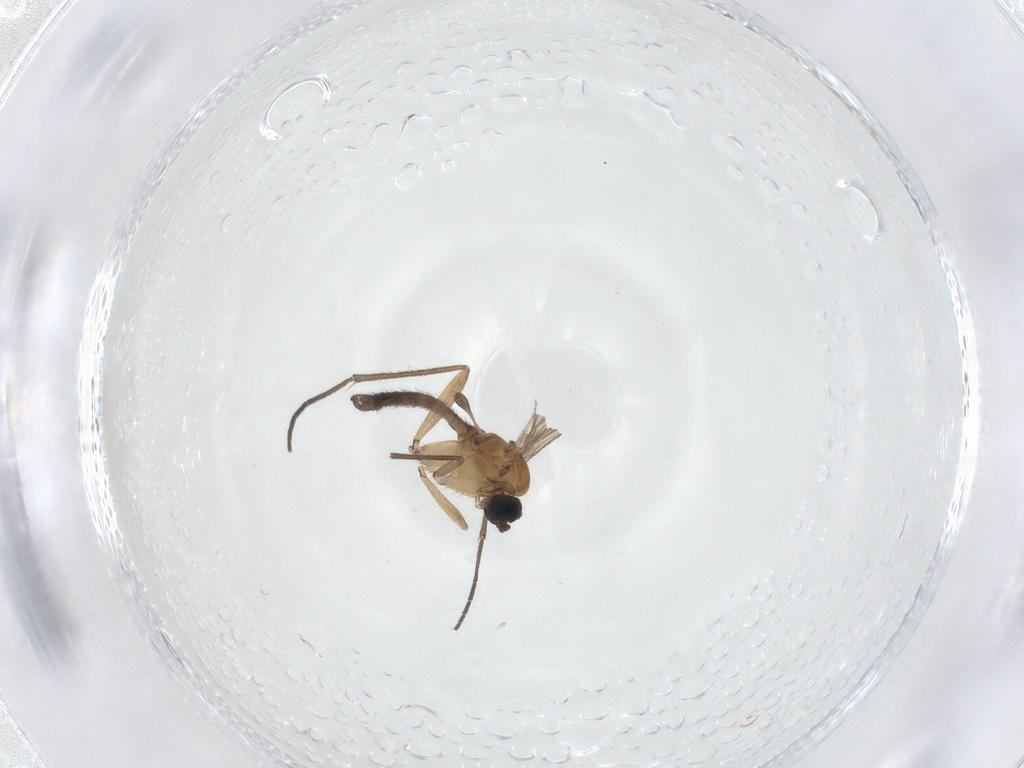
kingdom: Animalia
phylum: Arthropoda
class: Insecta
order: Diptera
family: Sciaridae
